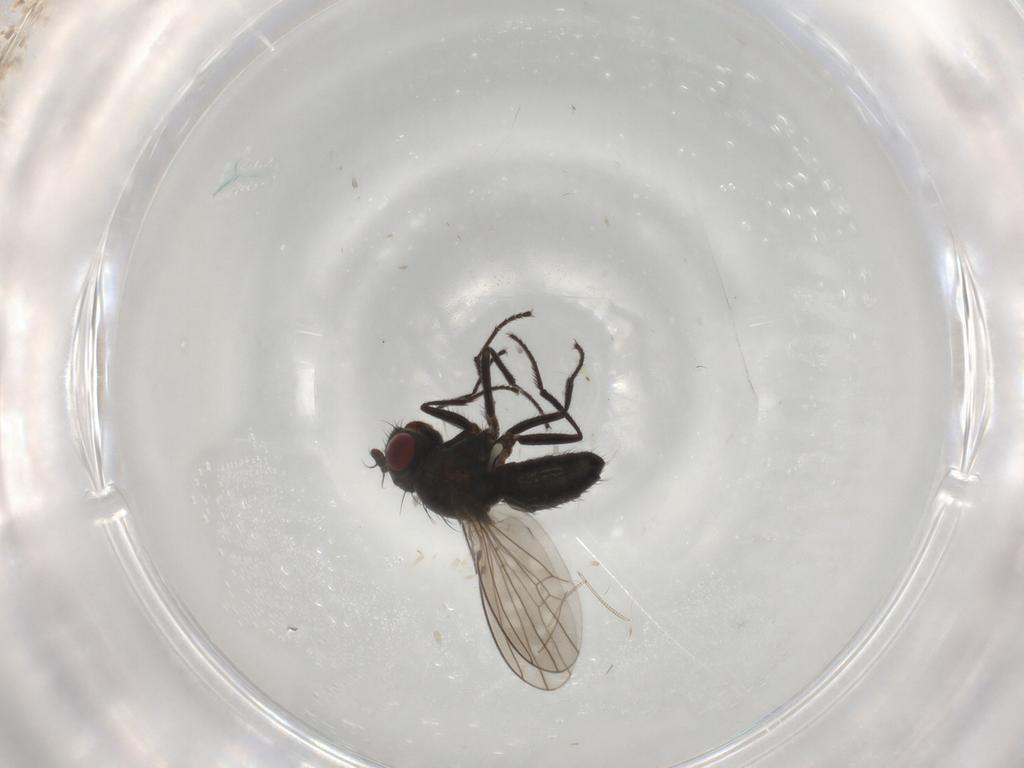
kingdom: Animalia
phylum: Arthropoda
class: Insecta
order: Diptera
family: Ephydridae
